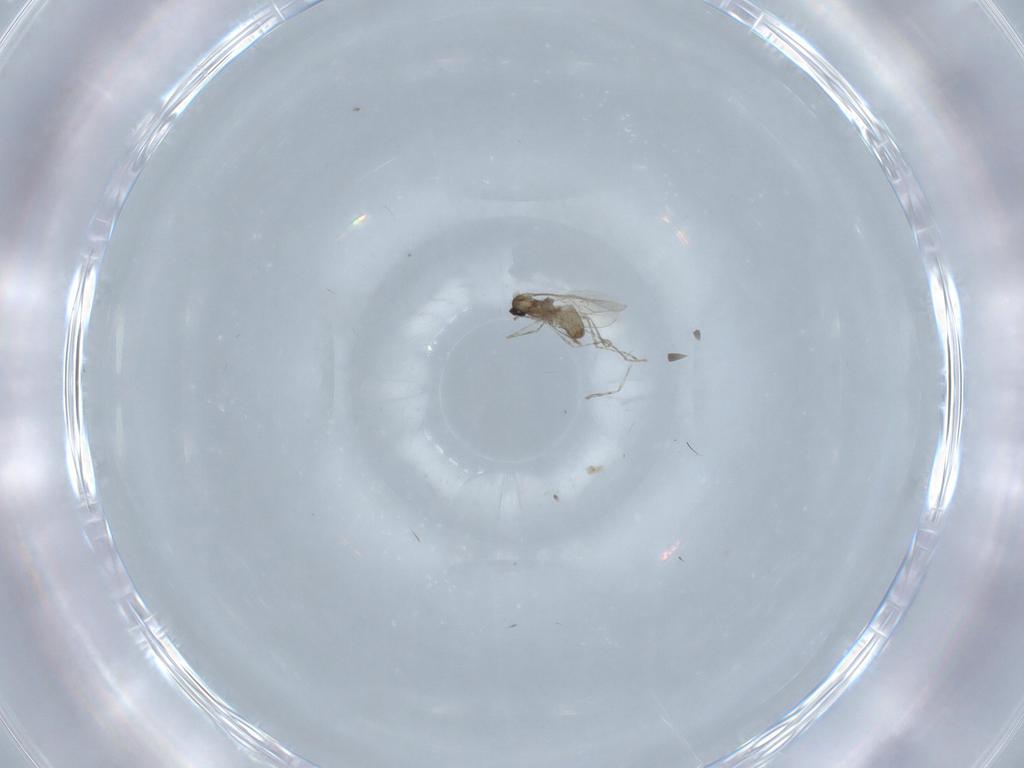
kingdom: Animalia
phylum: Arthropoda
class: Insecta
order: Diptera
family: Cecidomyiidae
